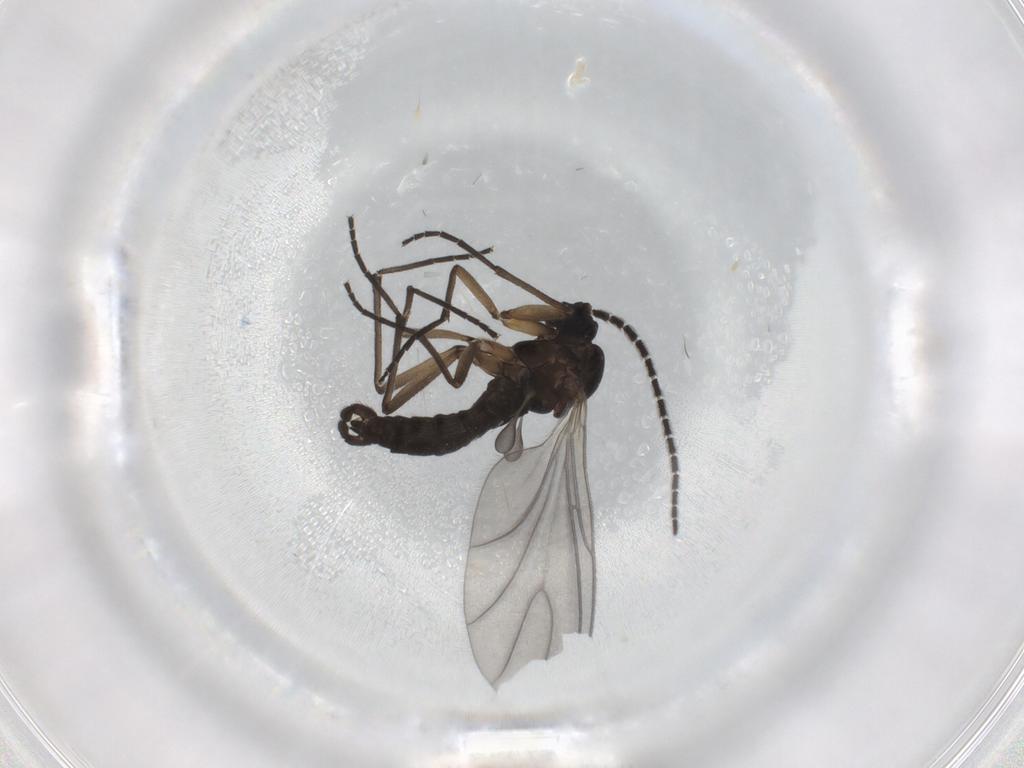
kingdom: Animalia
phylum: Arthropoda
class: Insecta
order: Diptera
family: Sciaridae
